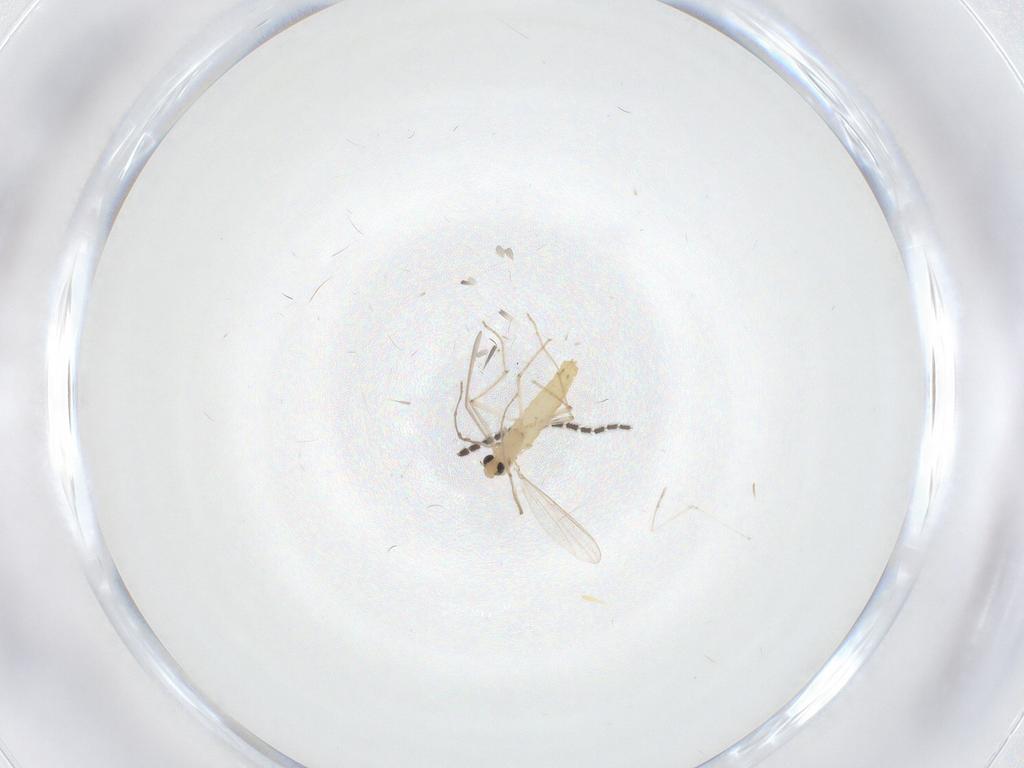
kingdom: Animalia
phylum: Arthropoda
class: Insecta
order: Diptera
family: Chironomidae
